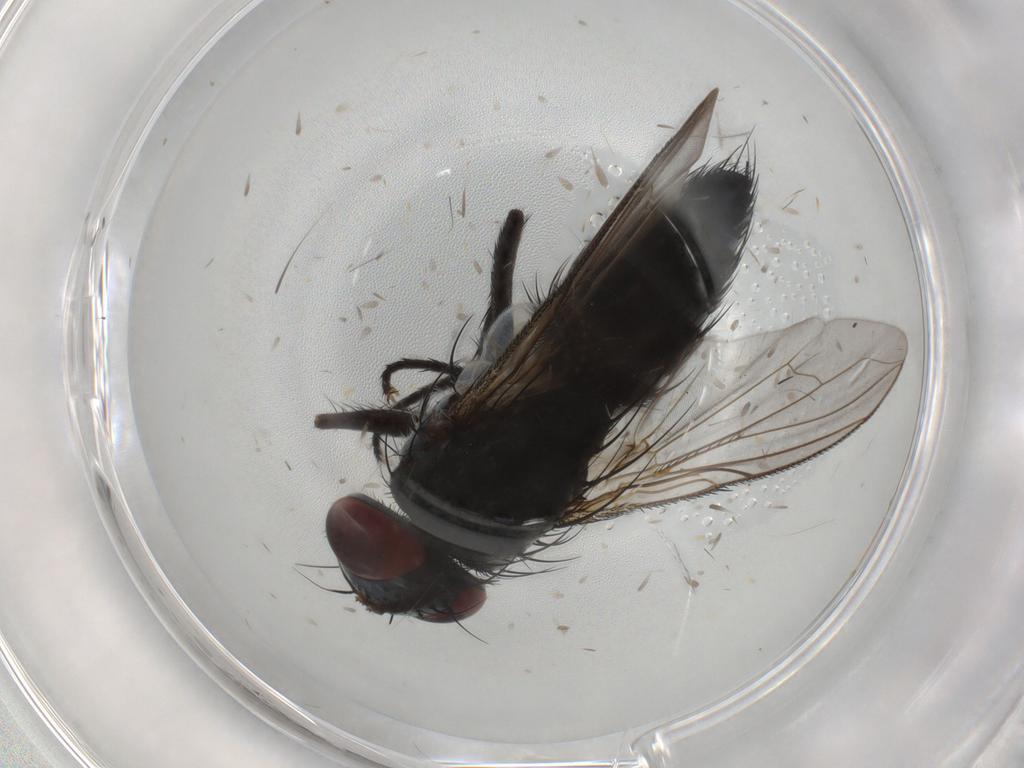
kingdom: Animalia
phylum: Arthropoda
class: Insecta
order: Diptera
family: Tachinidae
